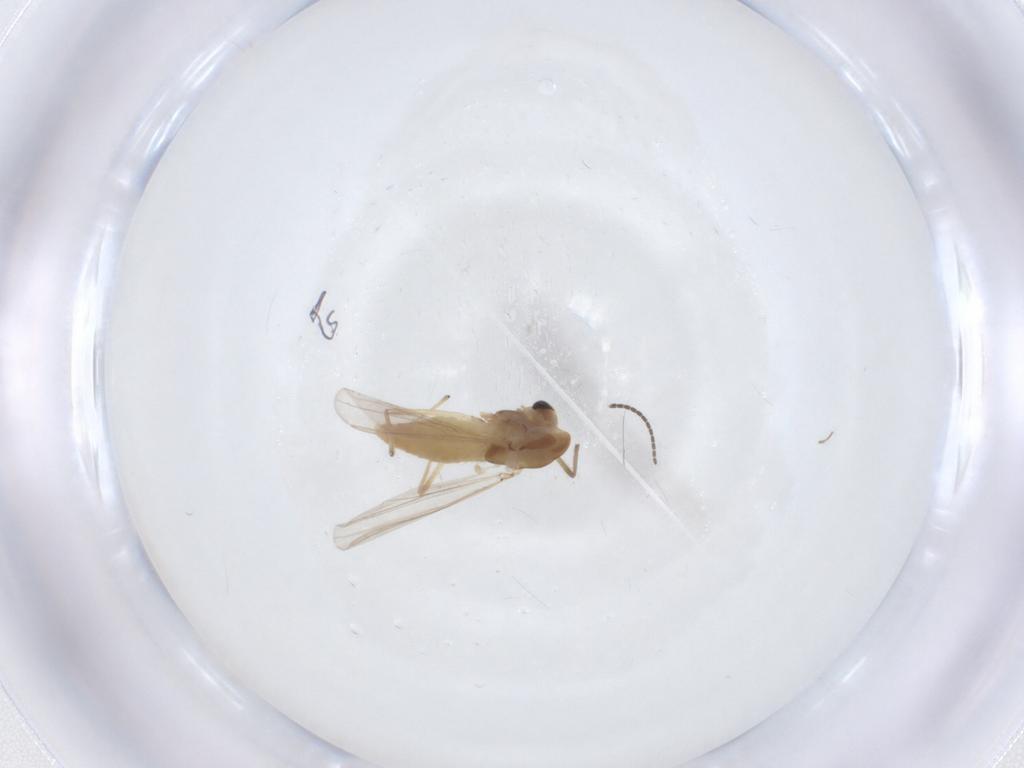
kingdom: Animalia
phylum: Arthropoda
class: Insecta
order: Diptera
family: Chironomidae
